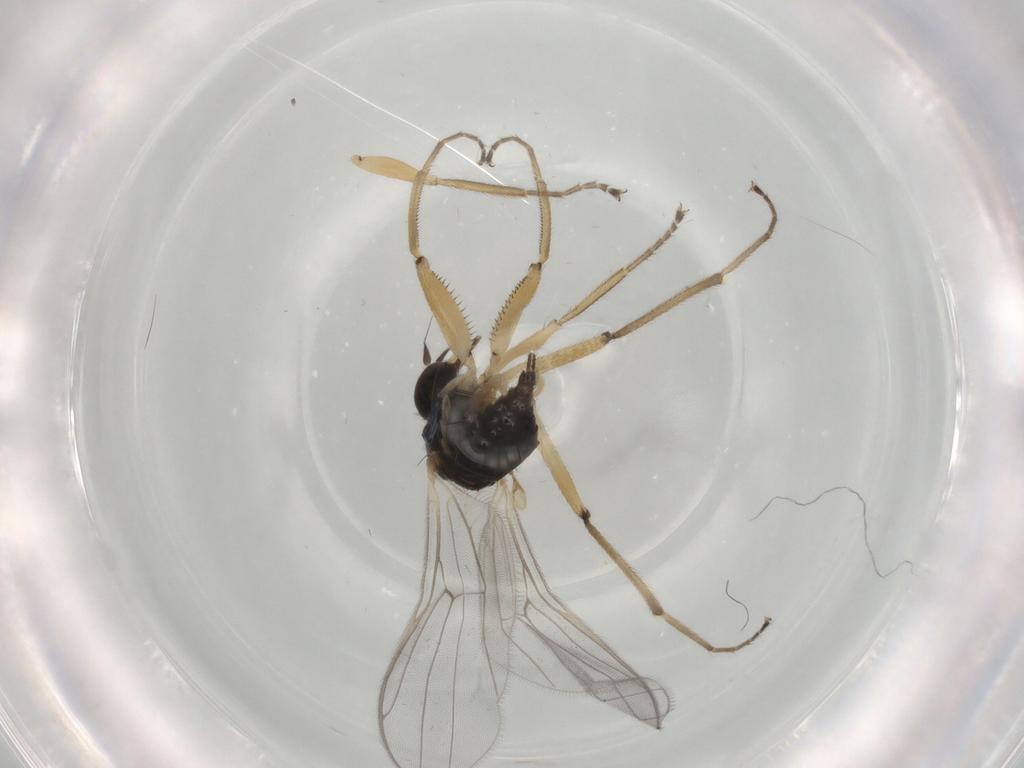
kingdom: Animalia
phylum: Arthropoda
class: Insecta
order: Diptera
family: Hybotidae
